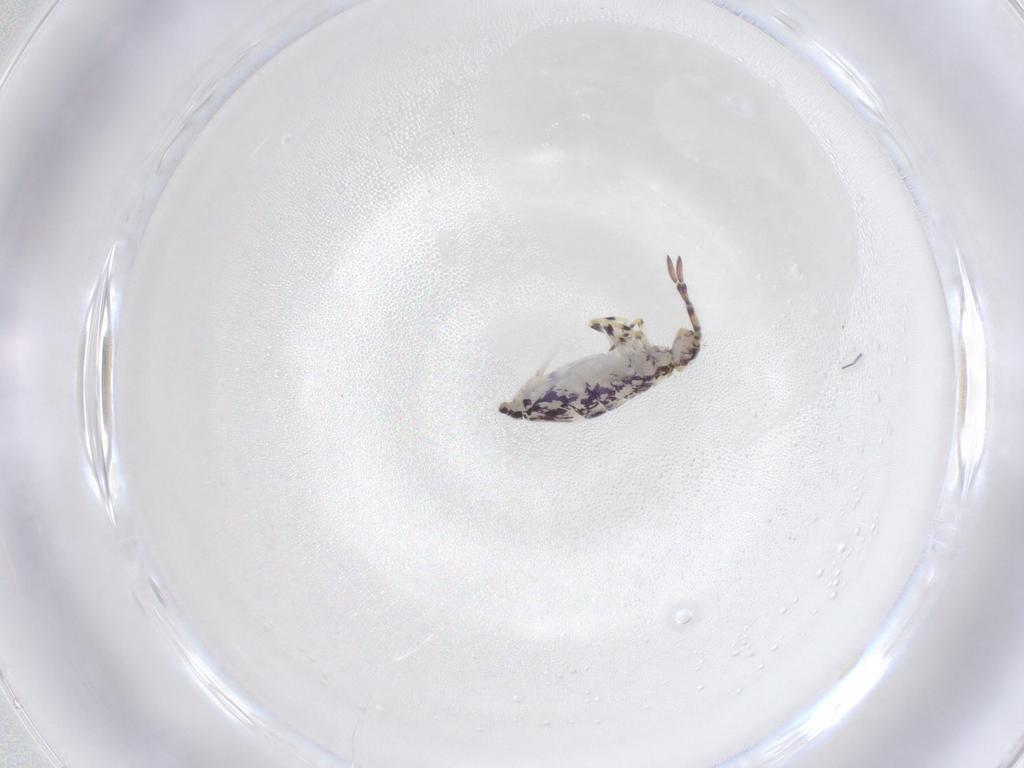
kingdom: Animalia
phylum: Arthropoda
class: Collembola
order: Entomobryomorpha
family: Entomobryidae
